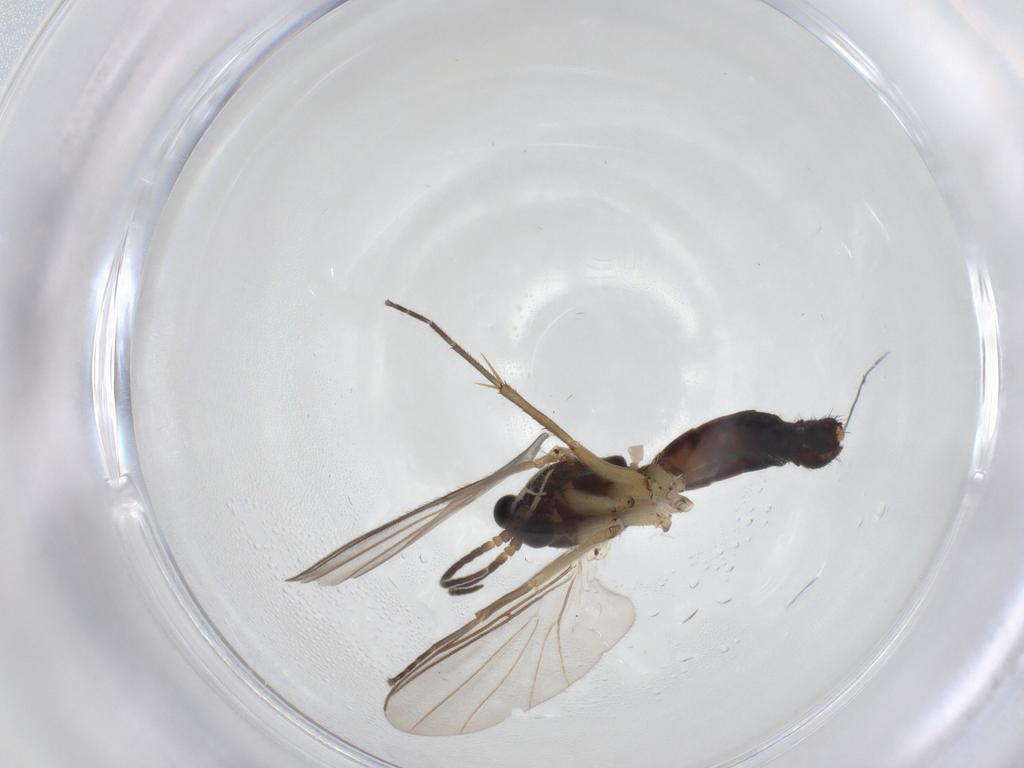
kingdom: Animalia
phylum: Arthropoda
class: Insecta
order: Diptera
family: Mycetophilidae
